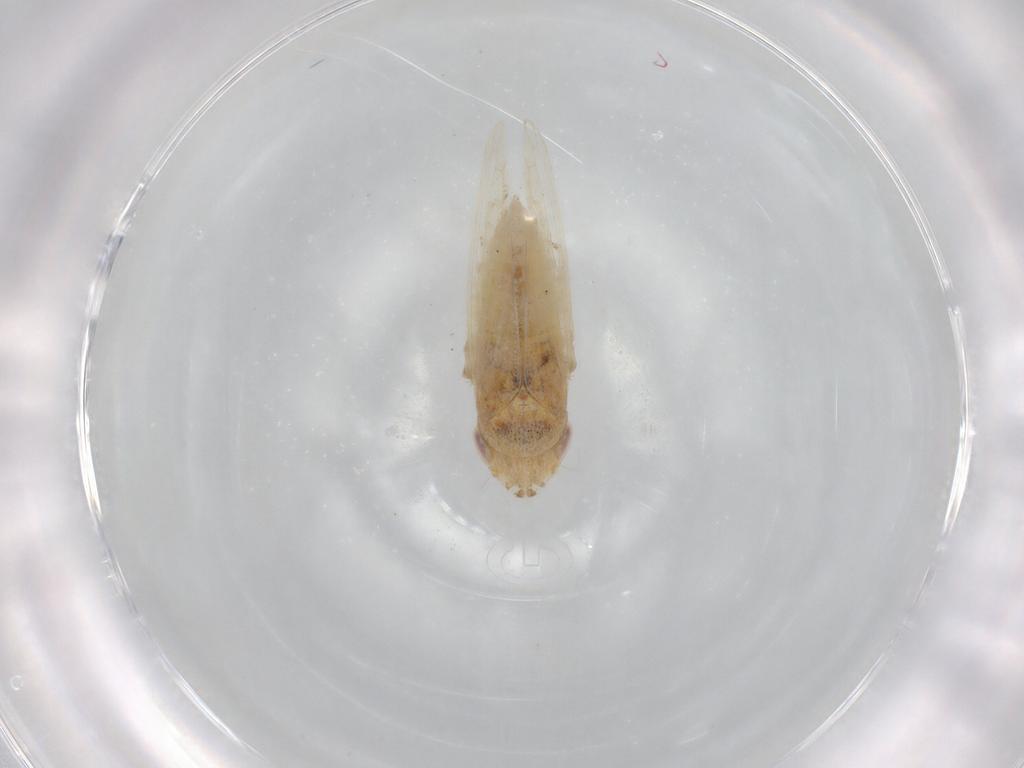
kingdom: Animalia
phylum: Arthropoda
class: Insecta
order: Hemiptera
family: Cicadellidae
